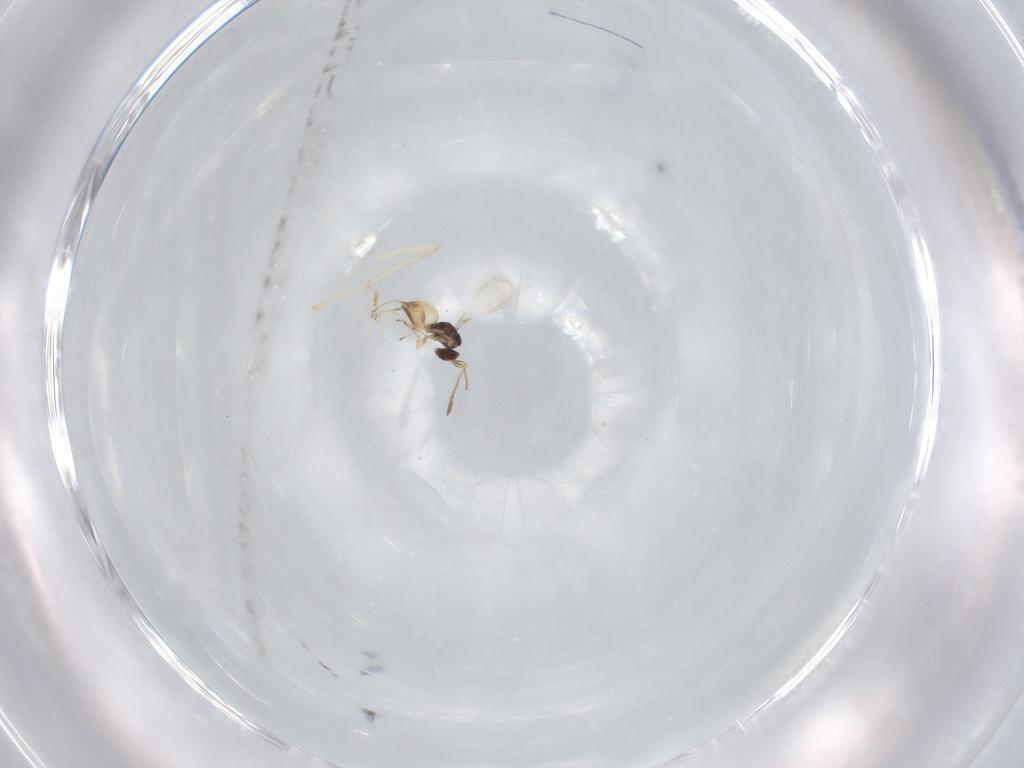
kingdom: Animalia
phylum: Arthropoda
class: Insecta
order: Hymenoptera
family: Mymaridae
